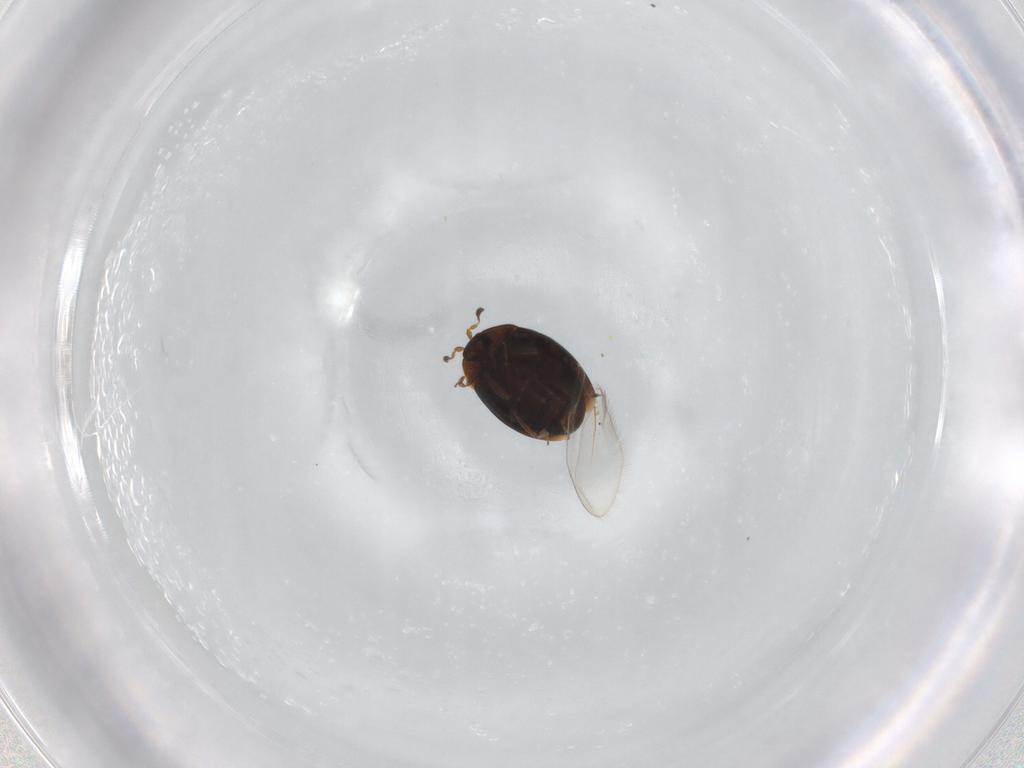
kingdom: Animalia
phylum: Arthropoda
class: Insecta
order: Coleoptera
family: Corylophidae
